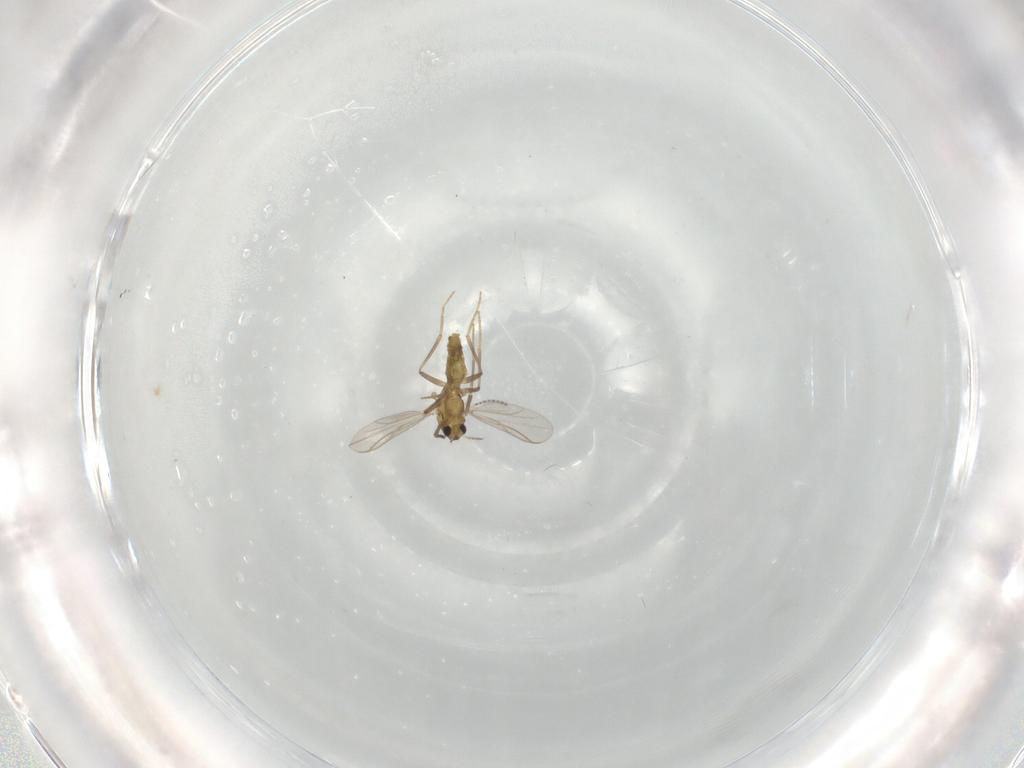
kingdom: Animalia
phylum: Arthropoda
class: Insecta
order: Diptera
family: Cecidomyiidae
